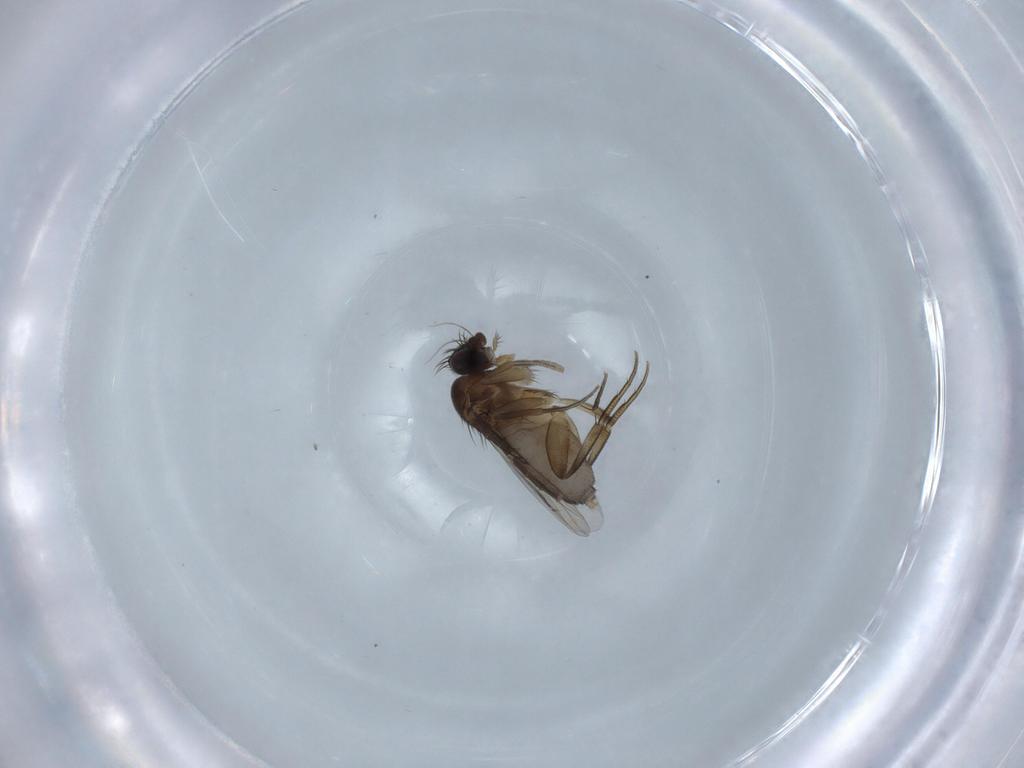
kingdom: Animalia
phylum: Arthropoda
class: Insecta
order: Diptera
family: Phoridae
